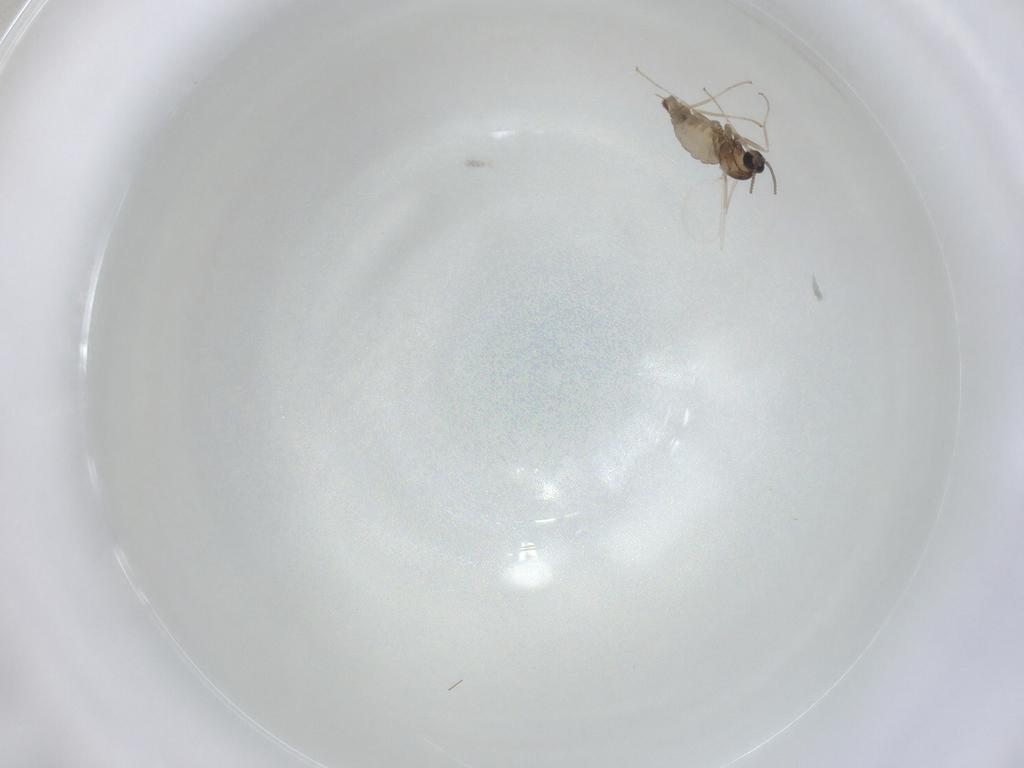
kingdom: Animalia
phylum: Arthropoda
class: Insecta
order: Diptera
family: Cecidomyiidae
